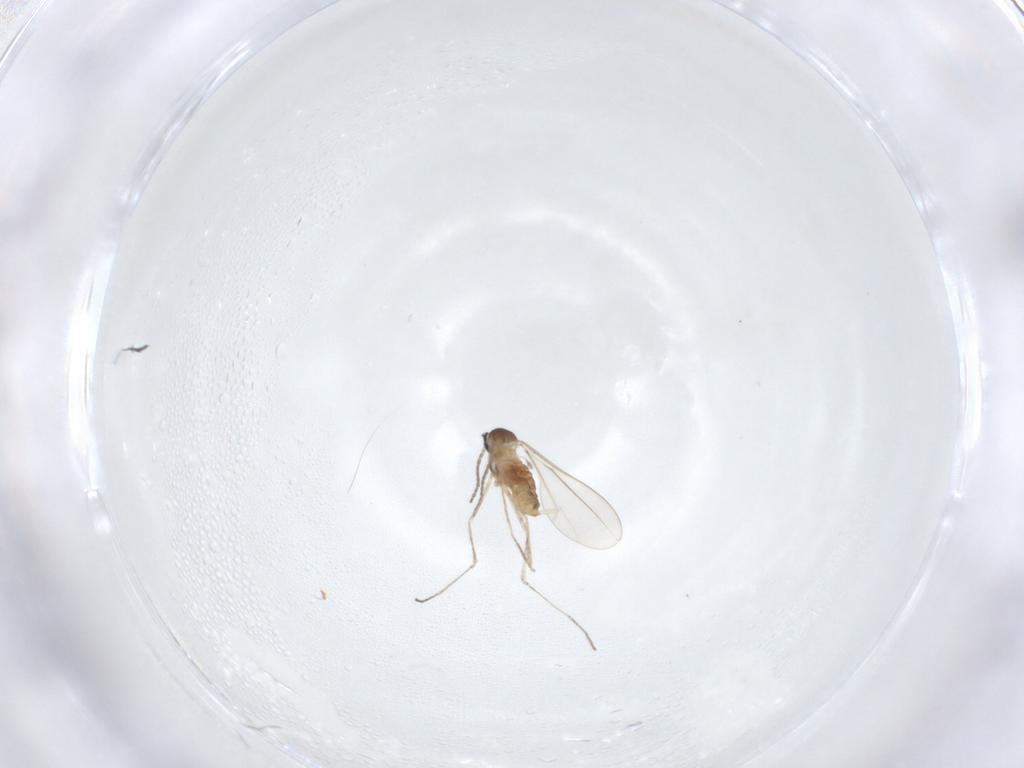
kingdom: Animalia
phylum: Arthropoda
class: Insecta
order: Diptera
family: Cecidomyiidae
